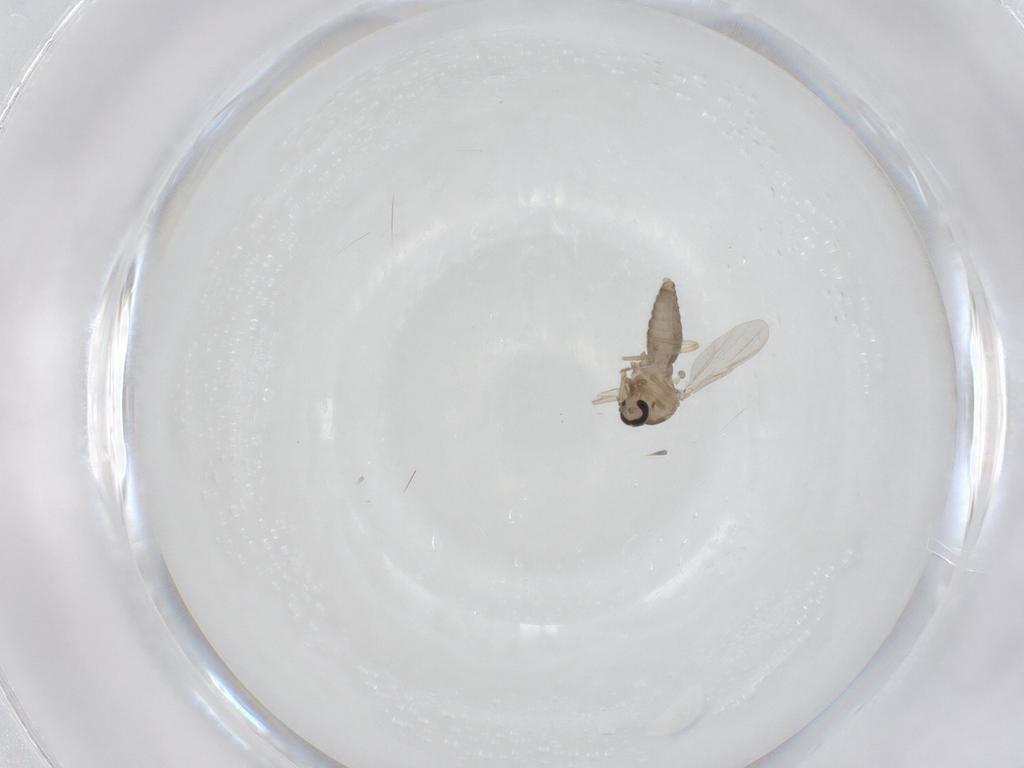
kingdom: Animalia
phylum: Arthropoda
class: Insecta
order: Diptera
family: Ceratopogonidae
